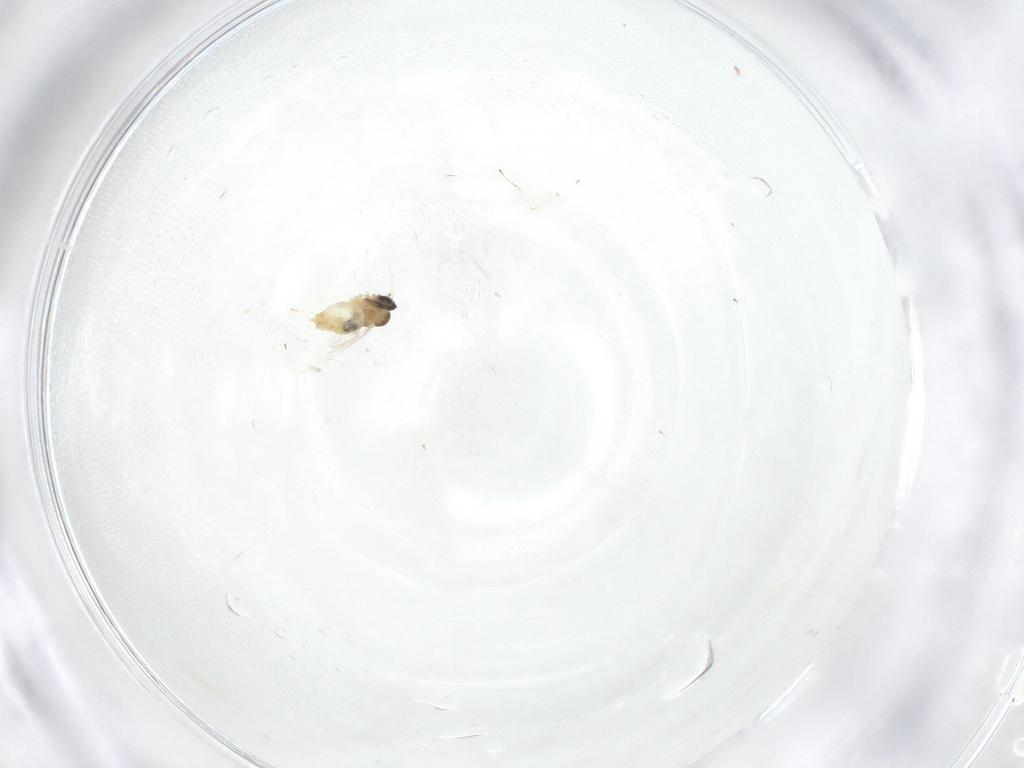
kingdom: Animalia
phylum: Arthropoda
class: Insecta
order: Diptera
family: Cecidomyiidae
